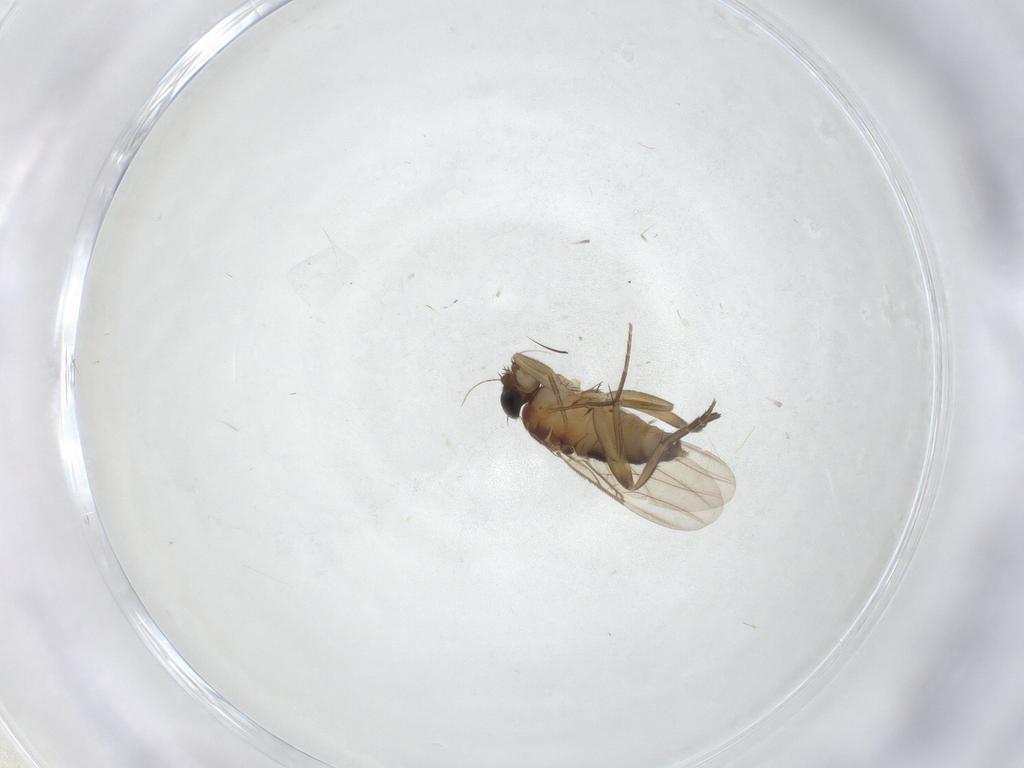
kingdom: Animalia
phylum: Arthropoda
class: Insecta
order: Diptera
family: Phoridae
